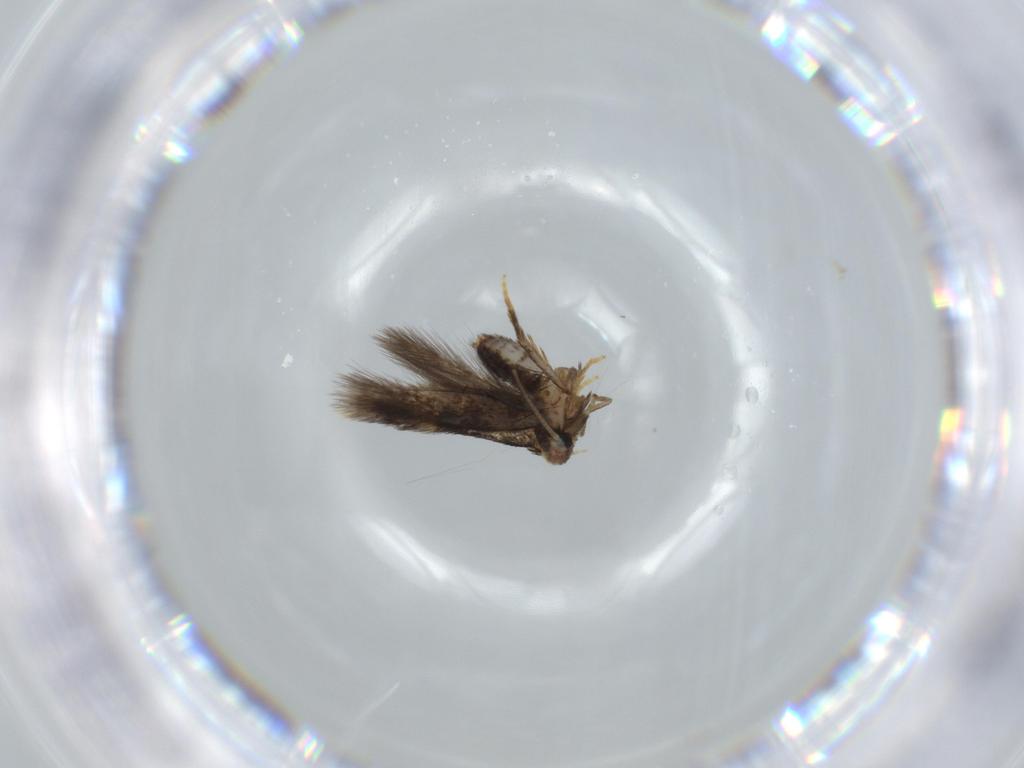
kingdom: Animalia
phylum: Arthropoda
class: Insecta
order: Lepidoptera
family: Nepticulidae
